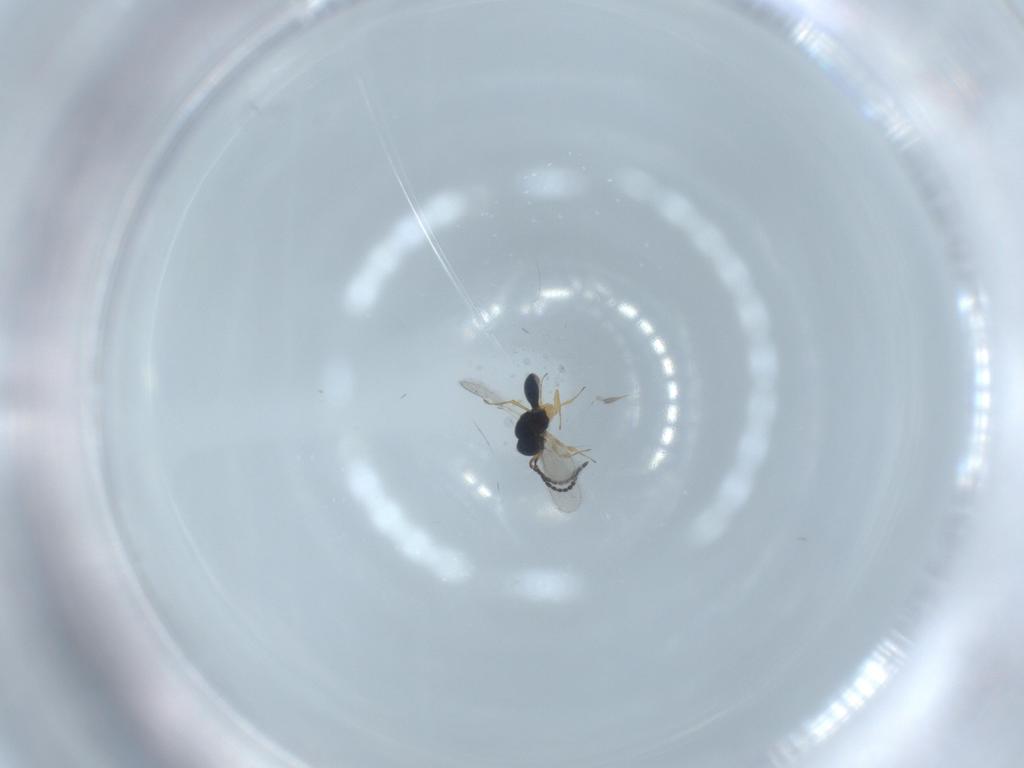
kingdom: Animalia
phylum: Arthropoda
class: Insecta
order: Hymenoptera
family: Scelionidae
